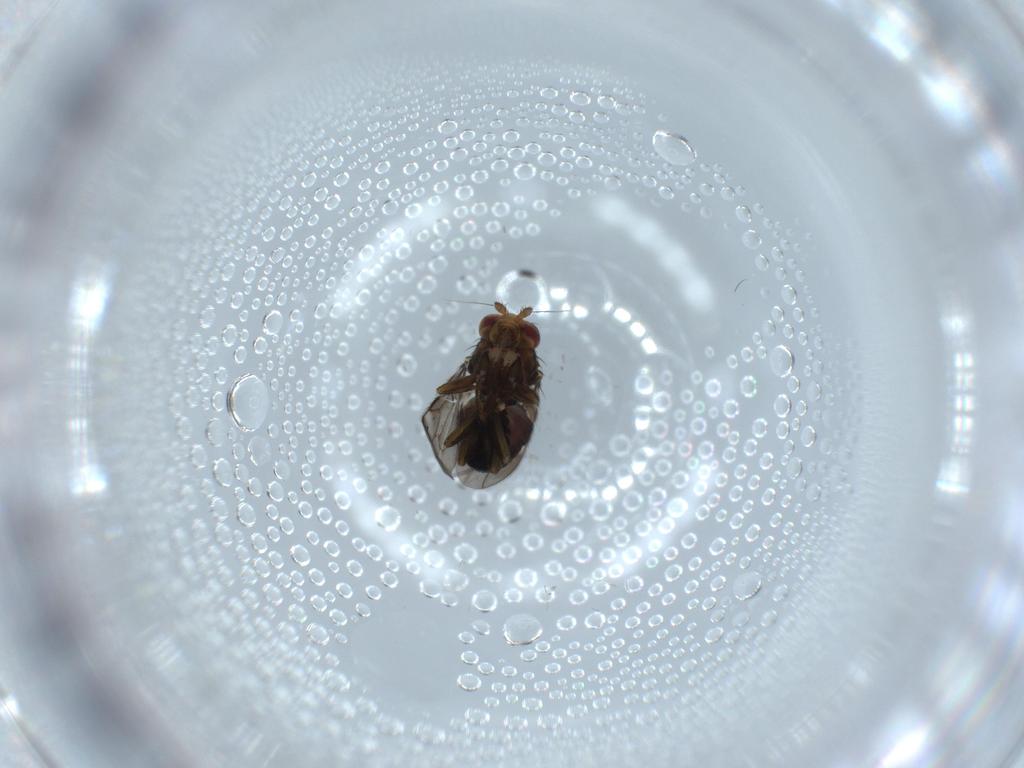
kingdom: Animalia
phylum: Arthropoda
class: Insecta
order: Diptera
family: Sphaeroceridae
